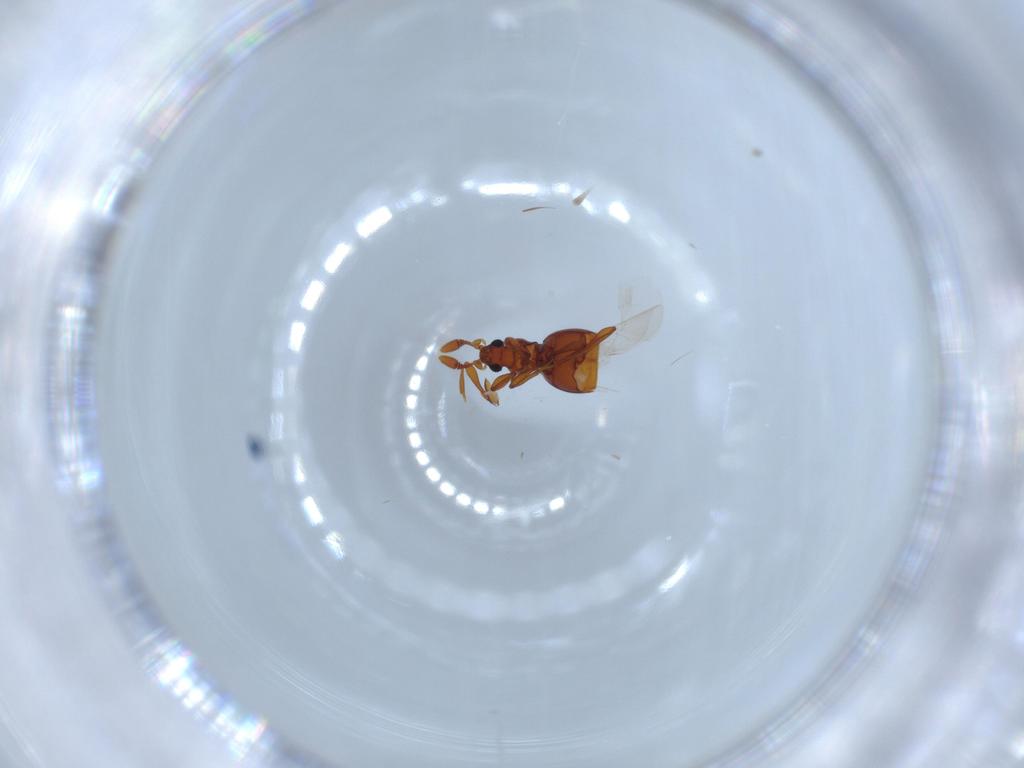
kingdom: Animalia
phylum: Arthropoda
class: Insecta
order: Coleoptera
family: Staphylinidae
